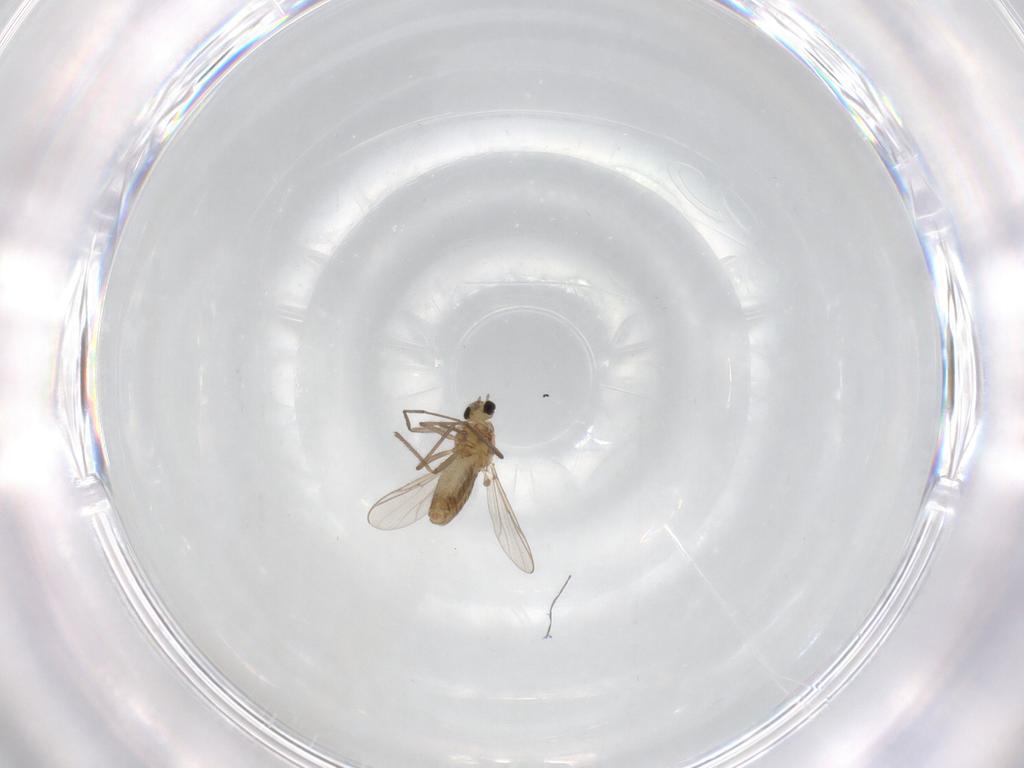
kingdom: Animalia
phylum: Arthropoda
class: Insecta
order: Diptera
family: Chironomidae
